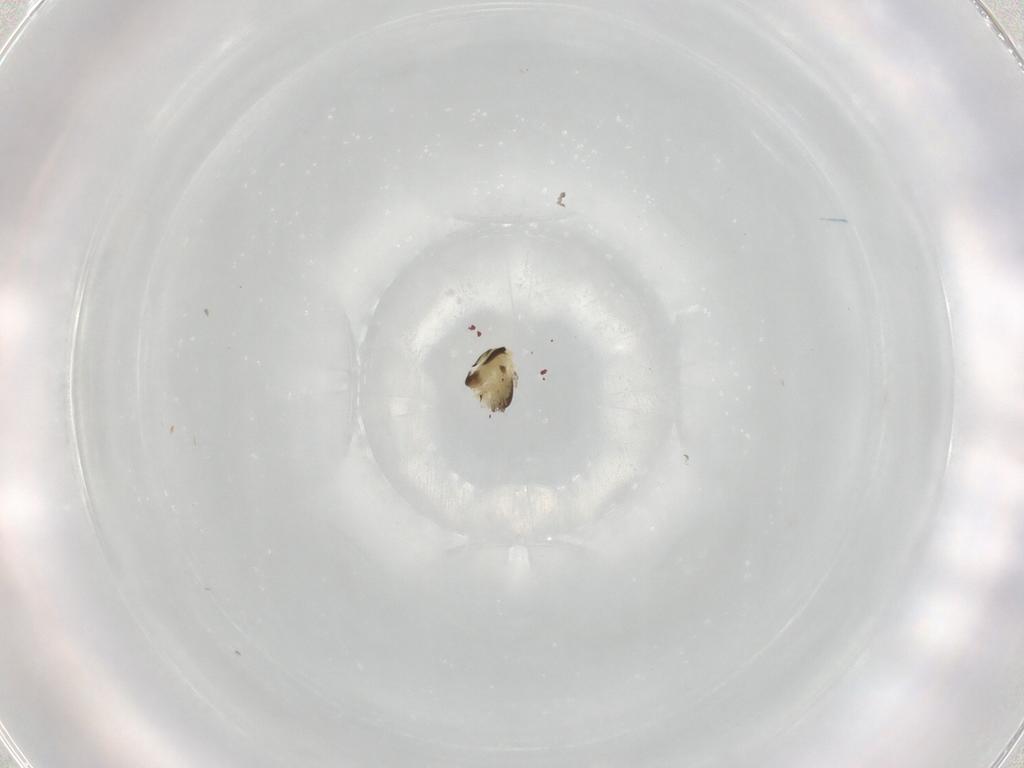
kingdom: Animalia
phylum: Arthropoda
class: Insecta
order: Diptera
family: Chironomidae
